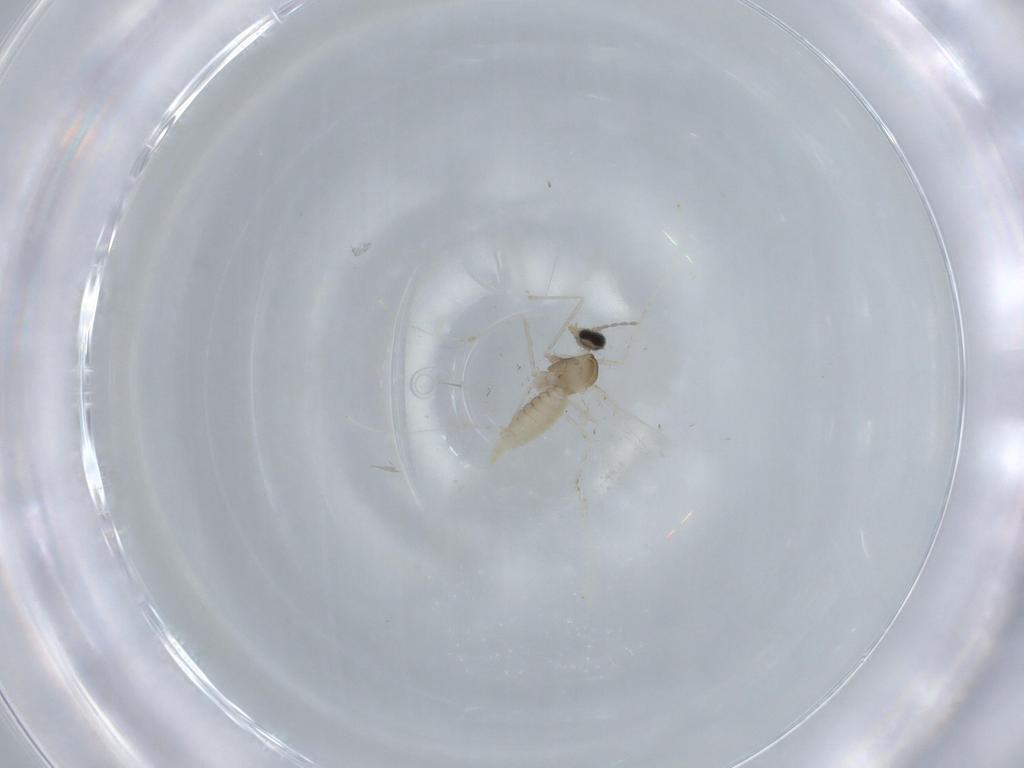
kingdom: Animalia
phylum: Arthropoda
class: Insecta
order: Diptera
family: Cecidomyiidae
